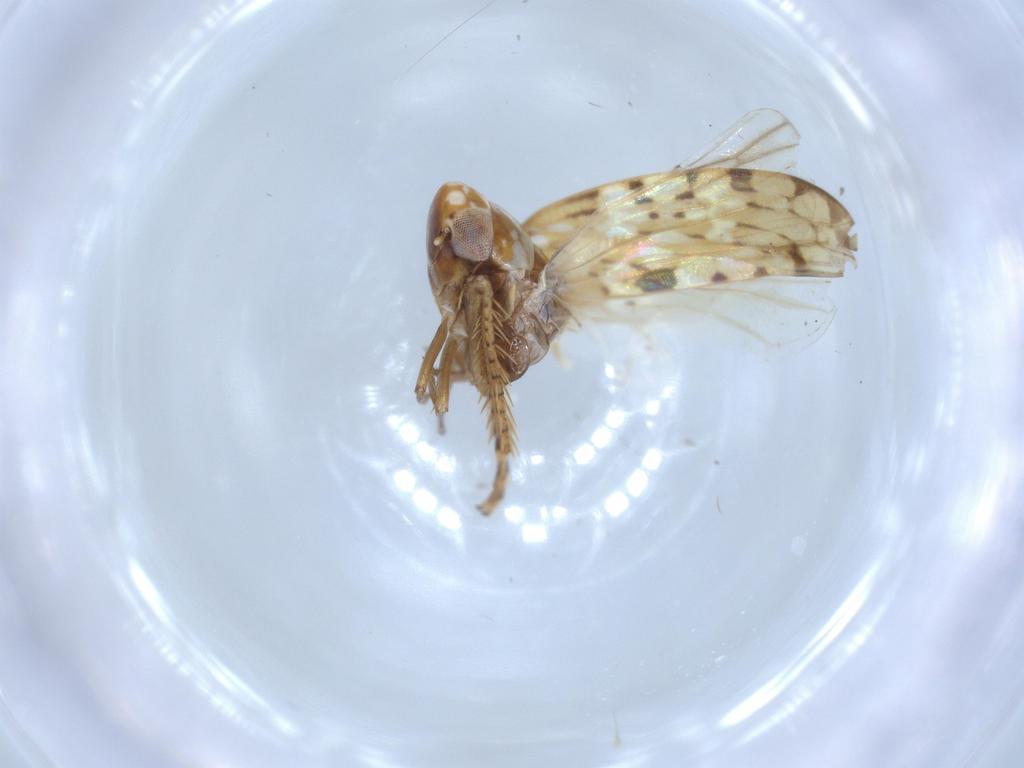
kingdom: Animalia
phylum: Arthropoda
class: Insecta
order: Hemiptera
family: Cicadellidae
